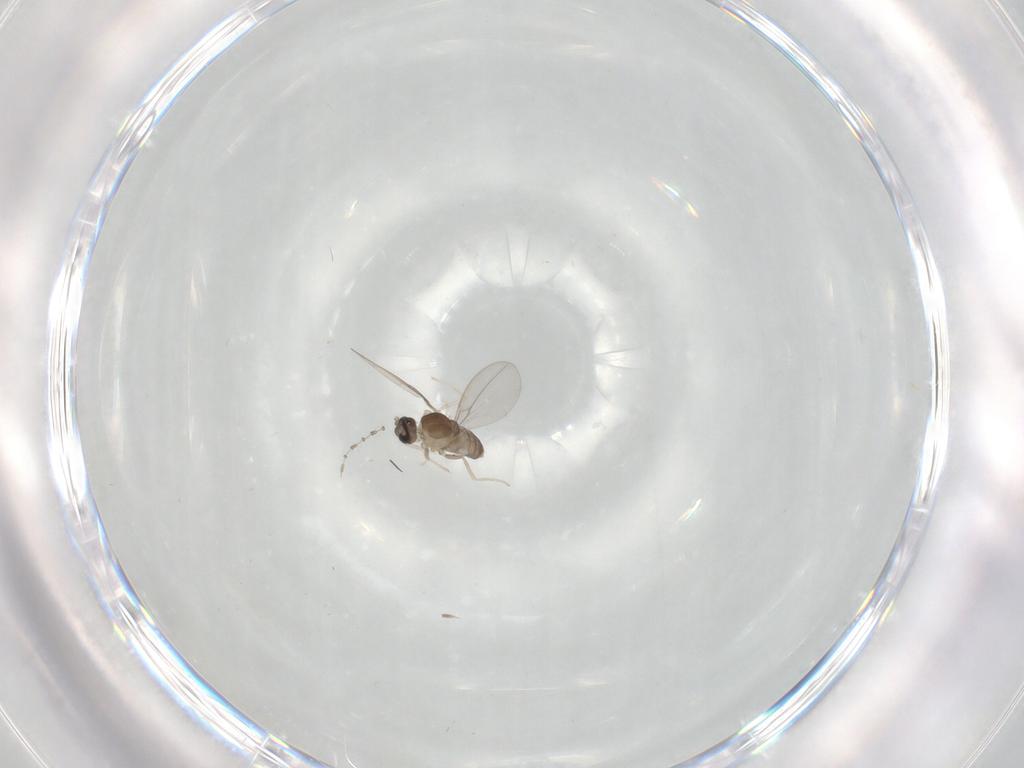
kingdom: Animalia
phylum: Arthropoda
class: Insecta
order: Diptera
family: Cecidomyiidae
